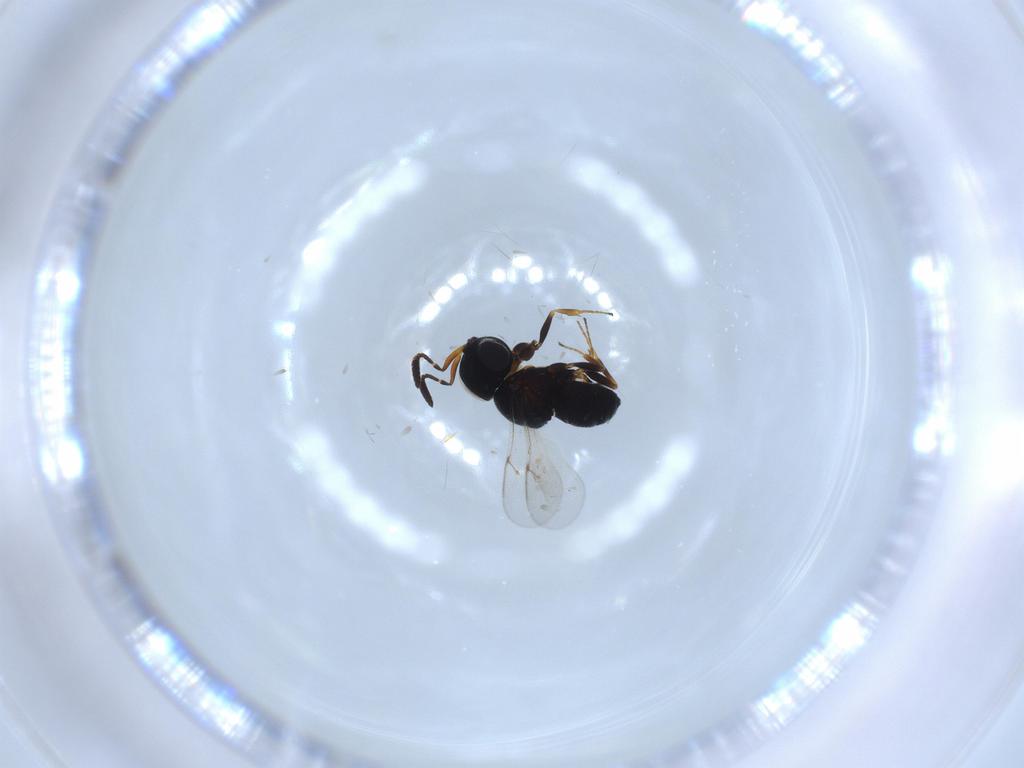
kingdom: Animalia
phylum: Arthropoda
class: Insecta
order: Hymenoptera
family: Scelionidae
